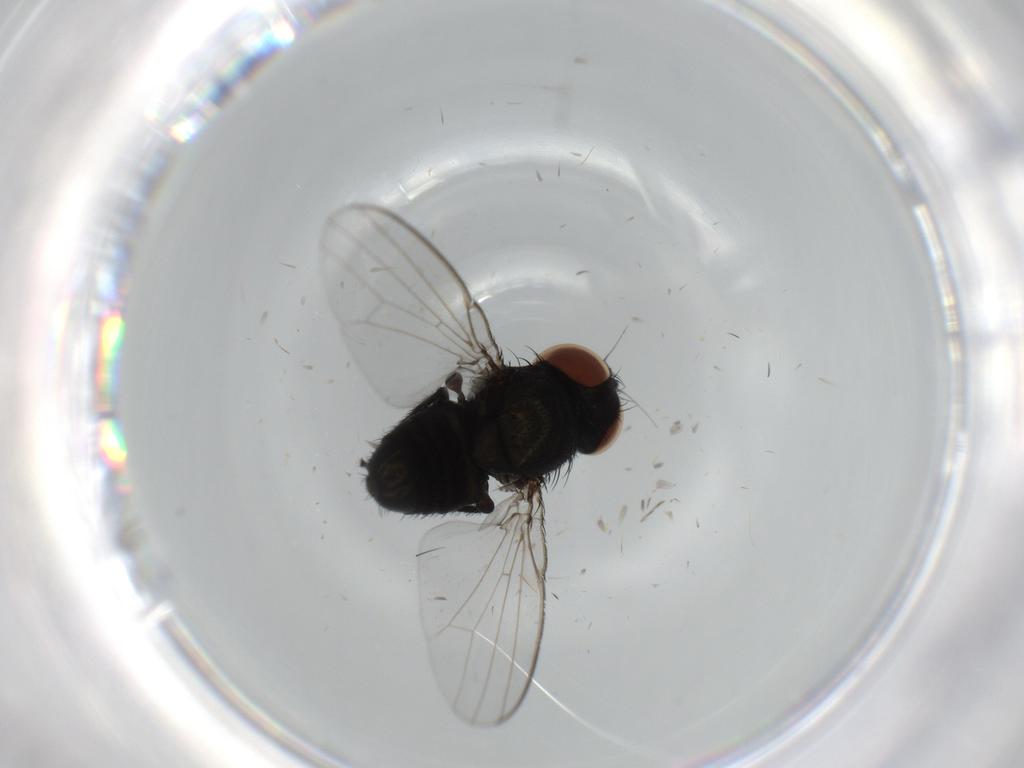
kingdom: Animalia
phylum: Arthropoda
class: Insecta
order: Diptera
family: Milichiidae
